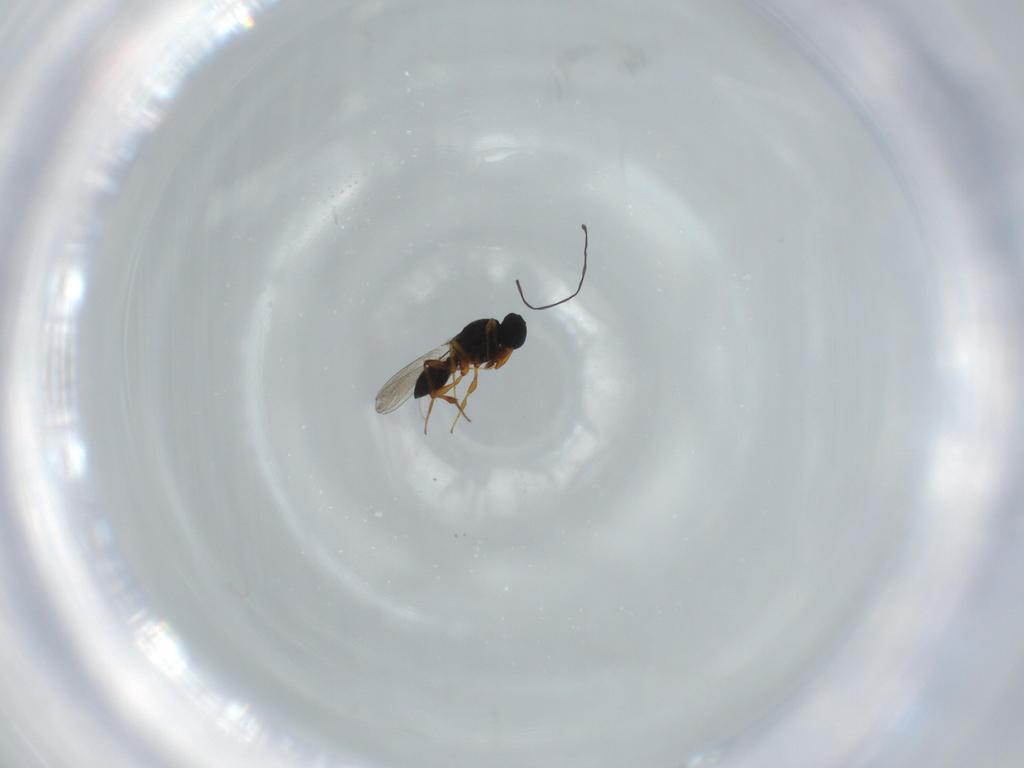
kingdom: Animalia
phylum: Arthropoda
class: Insecta
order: Hymenoptera
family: Platygastridae
